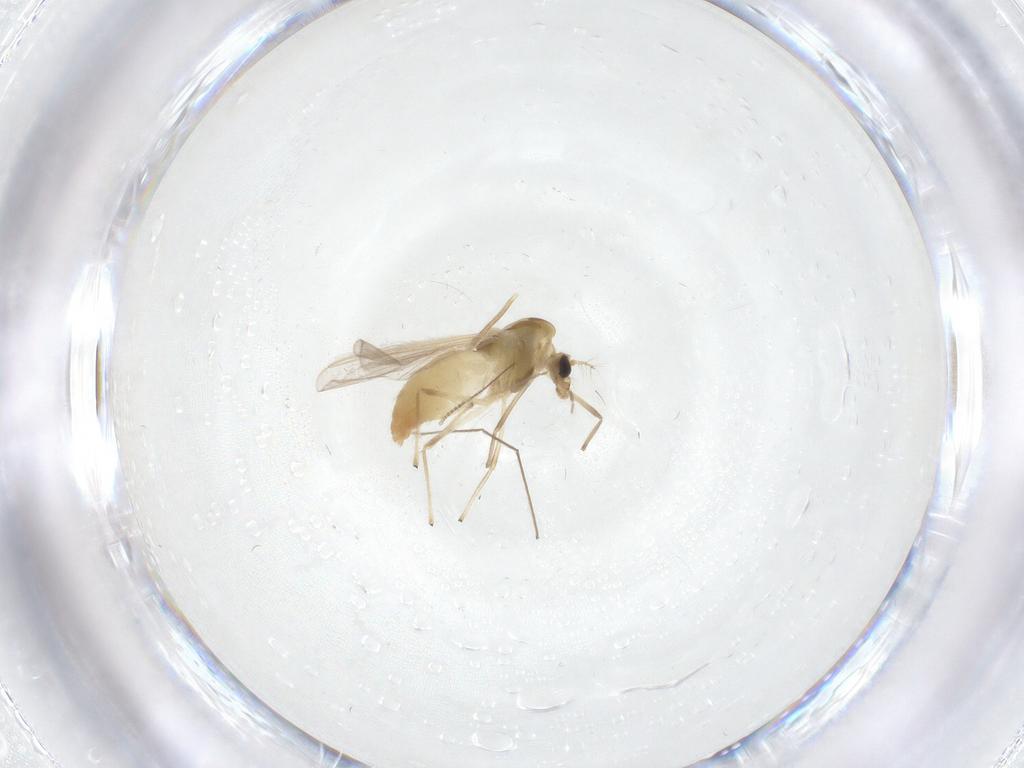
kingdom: Animalia
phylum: Arthropoda
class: Insecta
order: Diptera
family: Chironomidae
